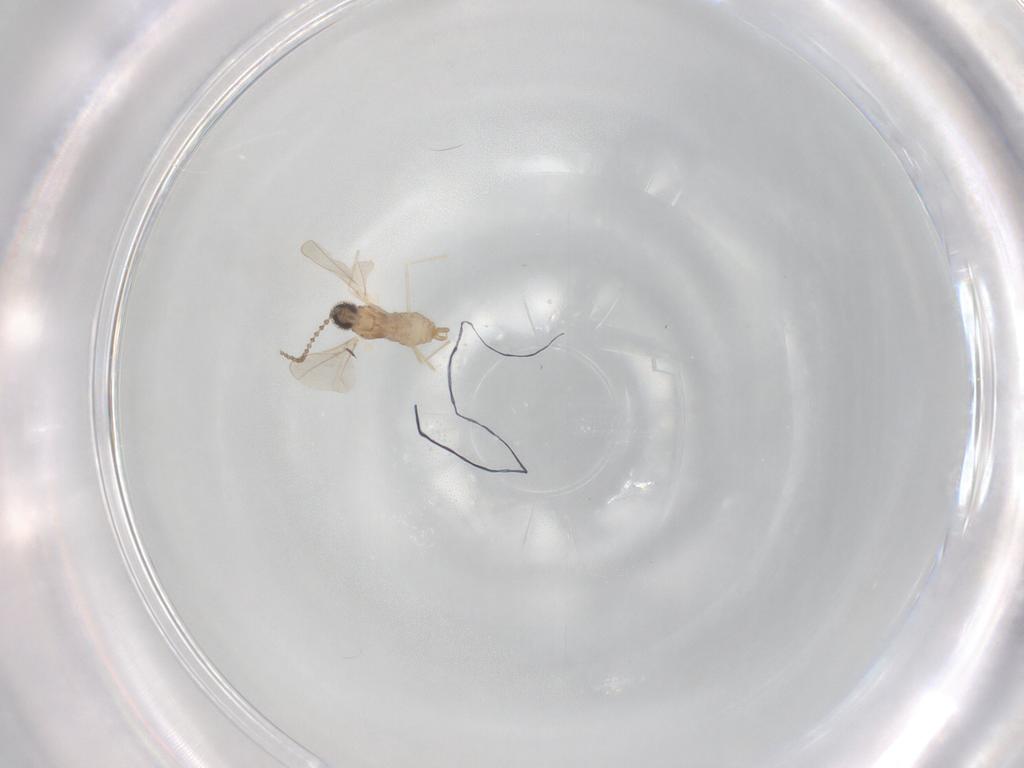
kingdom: Animalia
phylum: Arthropoda
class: Insecta
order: Diptera
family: Cecidomyiidae
